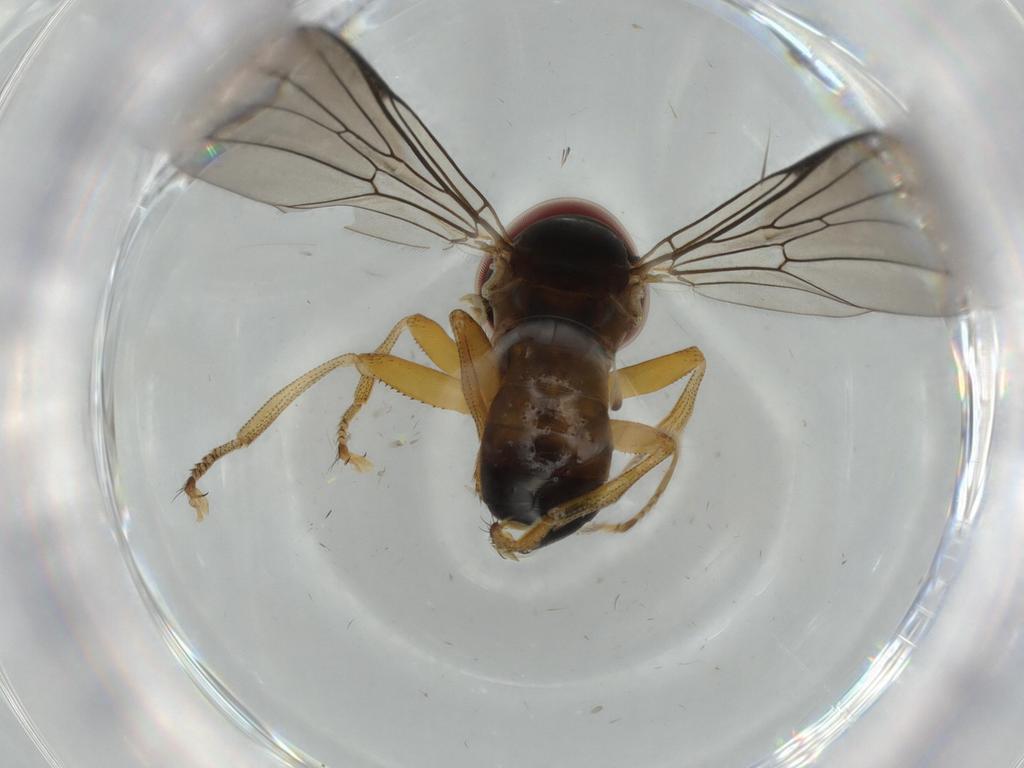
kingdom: Animalia
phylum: Arthropoda
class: Insecta
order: Diptera
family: Pipunculidae
